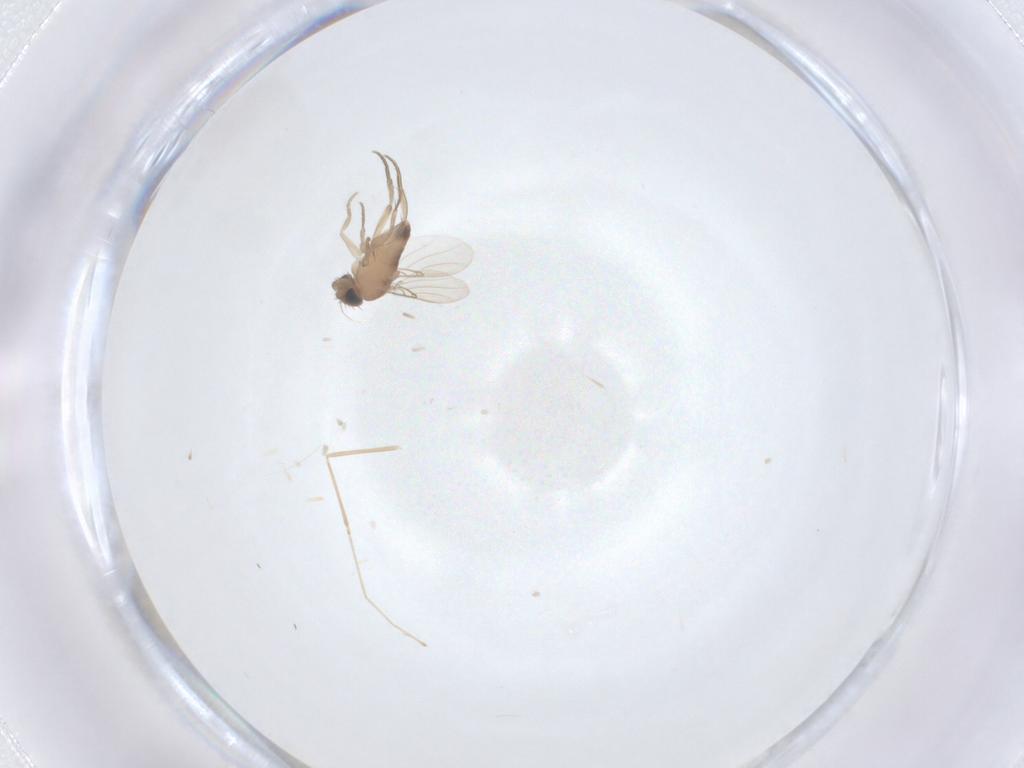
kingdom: Animalia
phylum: Arthropoda
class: Insecta
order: Diptera
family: Phoridae
